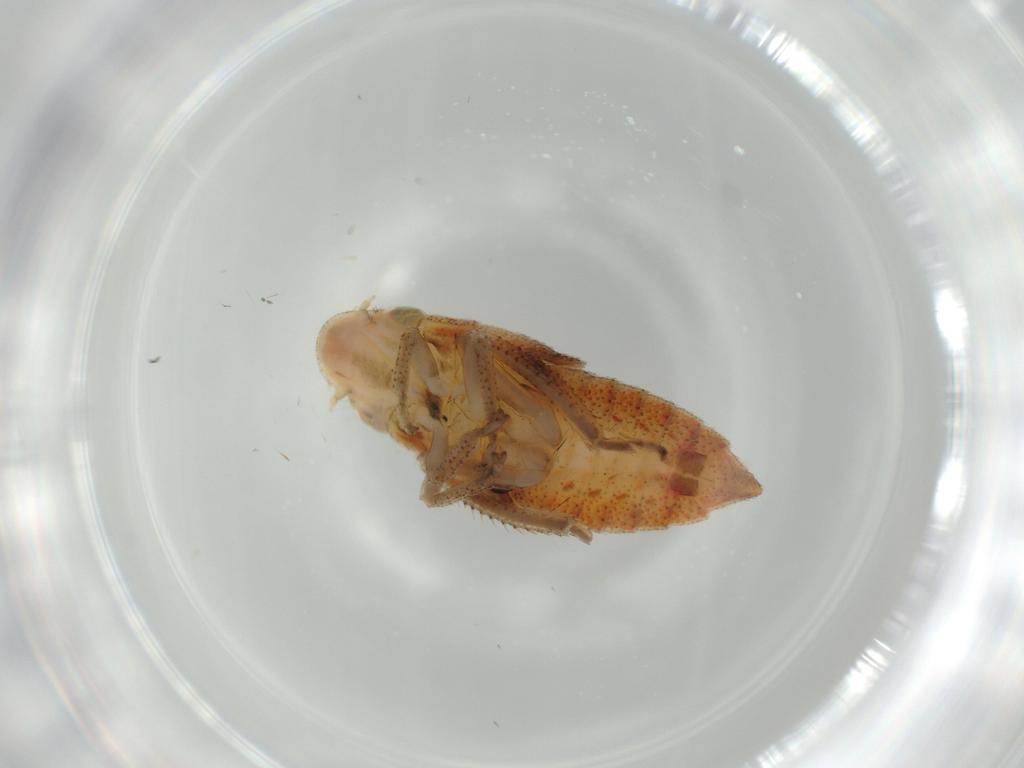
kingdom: Animalia
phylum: Arthropoda
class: Insecta
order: Hemiptera
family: Cicadellidae
